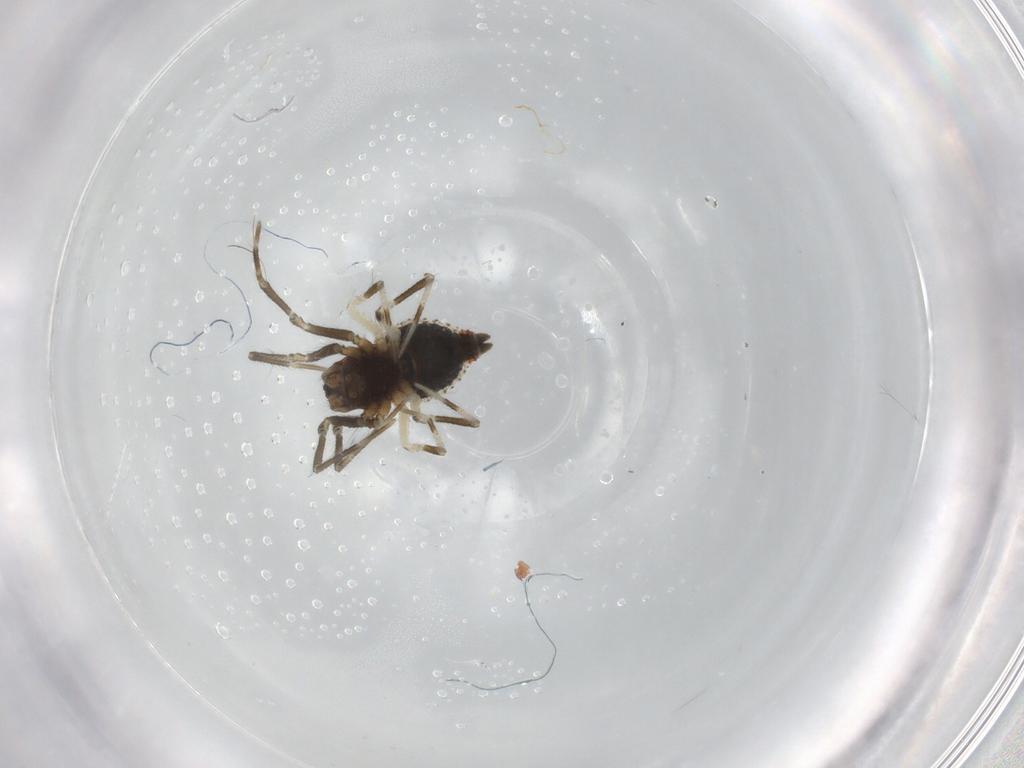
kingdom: Animalia
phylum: Arthropoda
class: Arachnida
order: Araneae
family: Theridiidae
